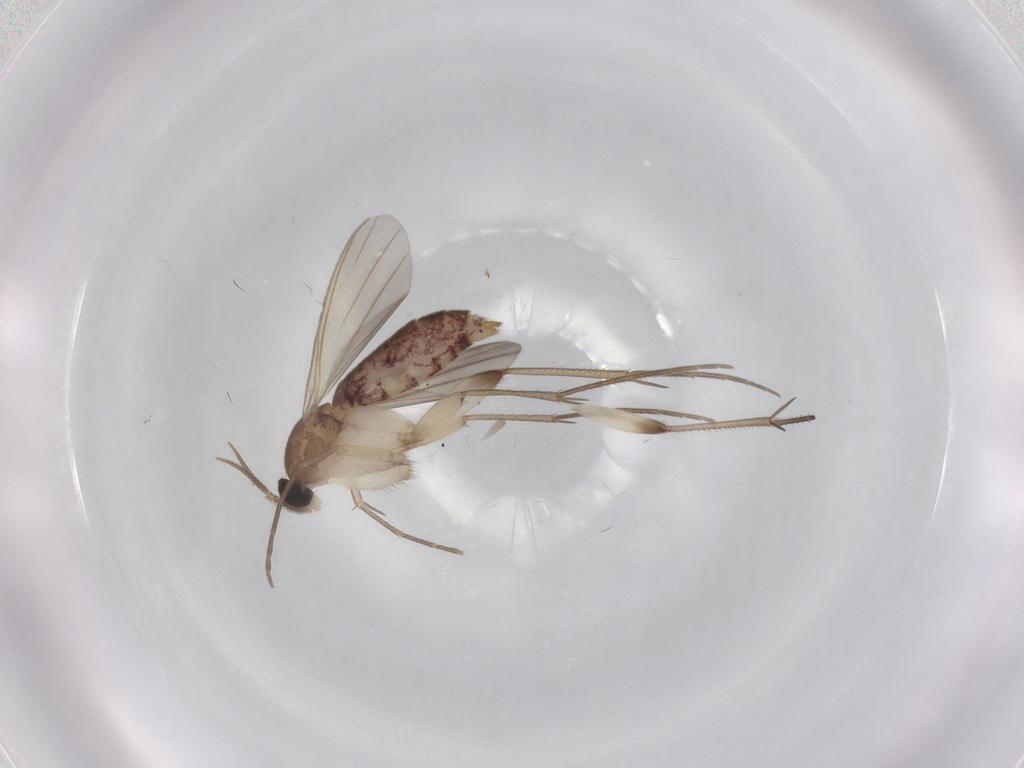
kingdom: Animalia
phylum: Arthropoda
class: Insecta
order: Diptera
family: Mycetophilidae
